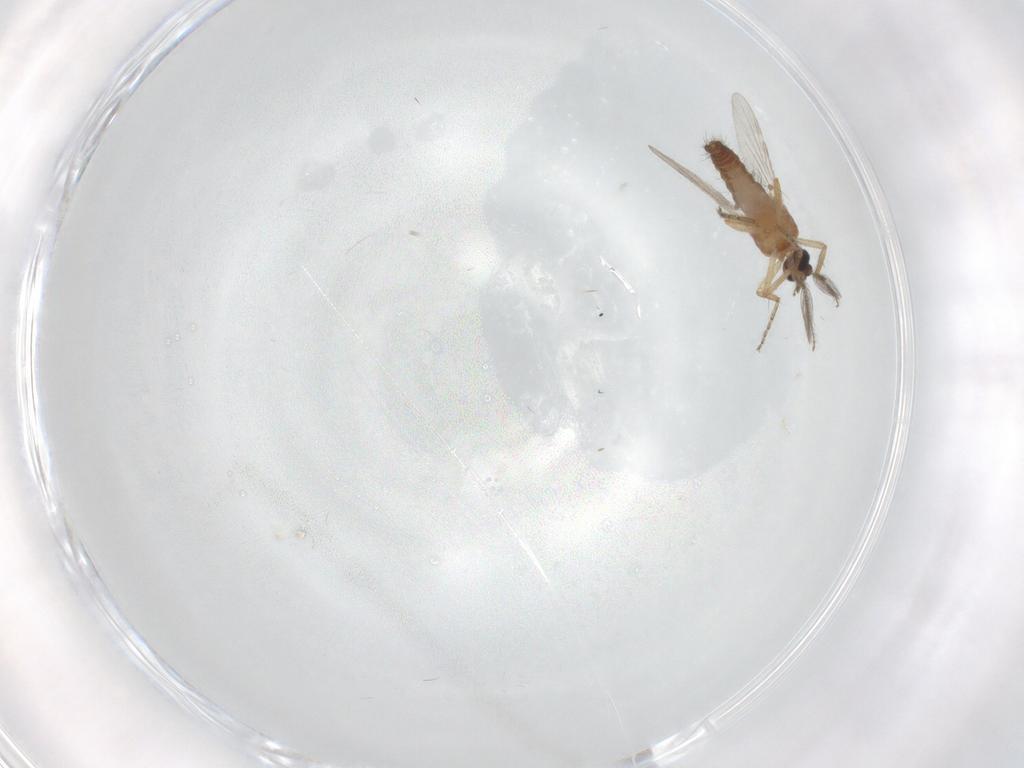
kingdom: Animalia
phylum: Arthropoda
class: Insecta
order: Diptera
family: Ceratopogonidae
